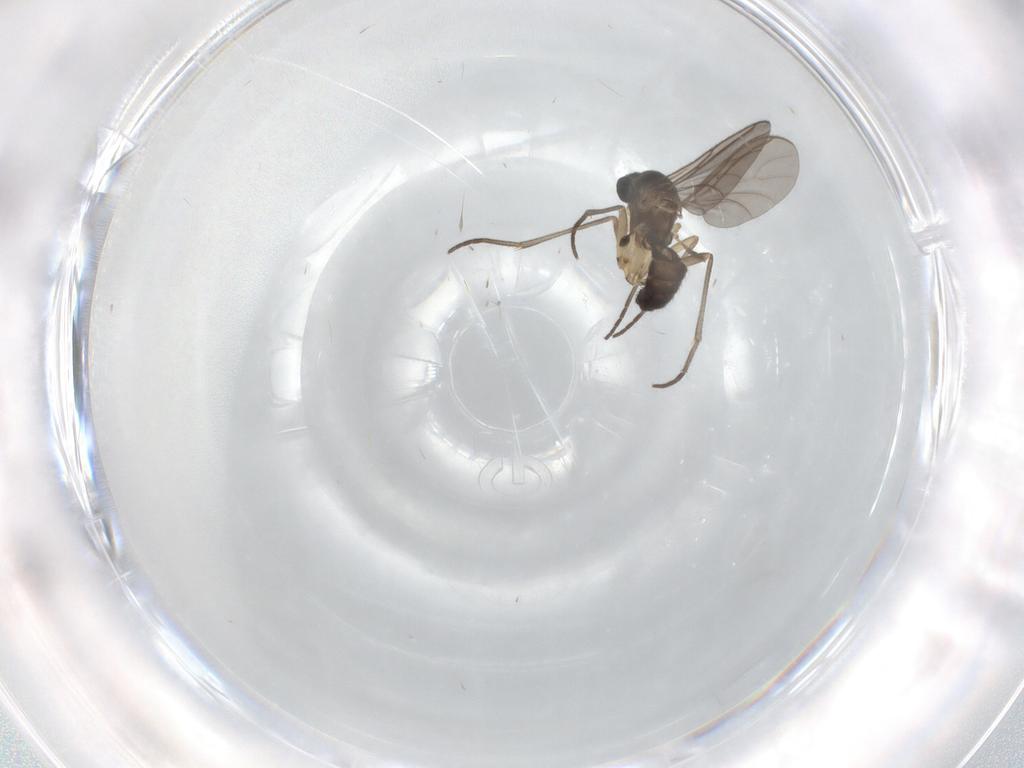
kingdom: Animalia
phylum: Arthropoda
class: Insecta
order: Diptera
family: Sciaridae
